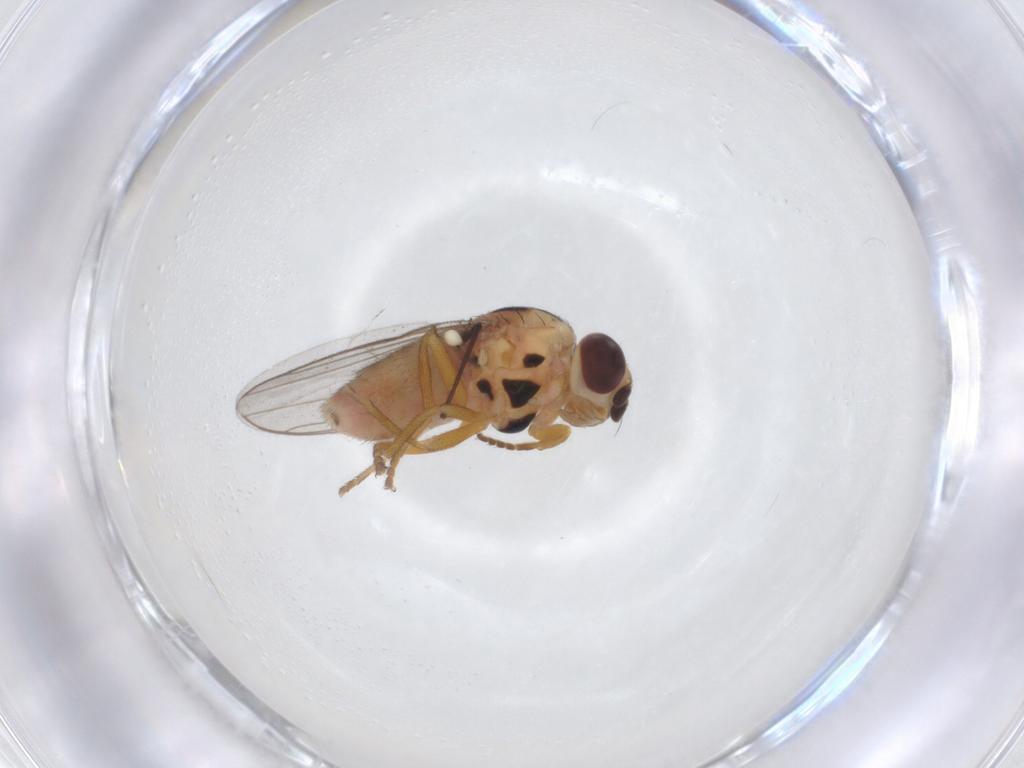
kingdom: Animalia
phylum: Arthropoda
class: Insecta
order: Diptera
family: Chloropidae
